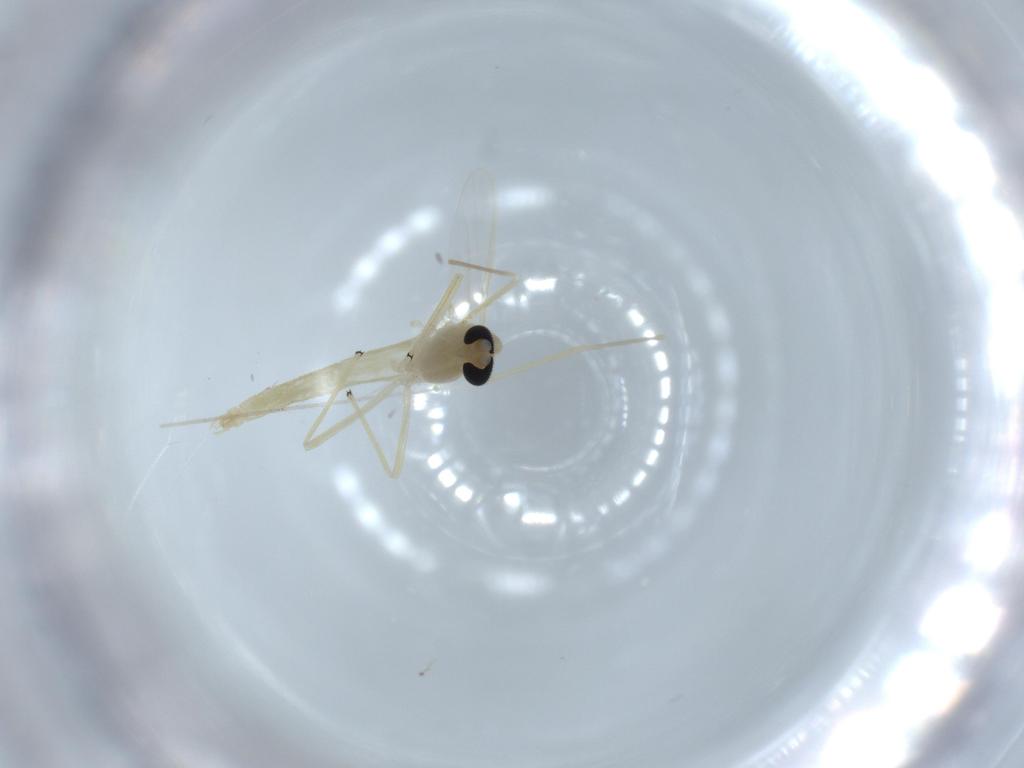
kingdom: Animalia
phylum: Arthropoda
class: Insecta
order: Diptera
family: Chironomidae
